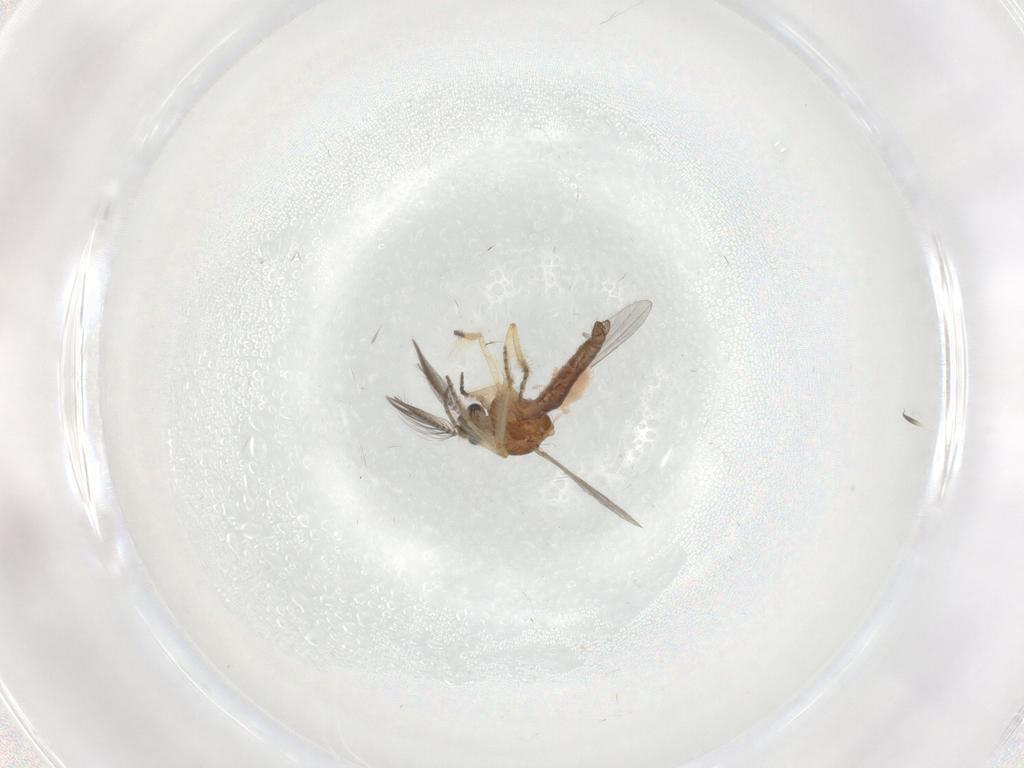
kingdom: Animalia
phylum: Arthropoda
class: Insecta
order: Diptera
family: Ceratopogonidae
